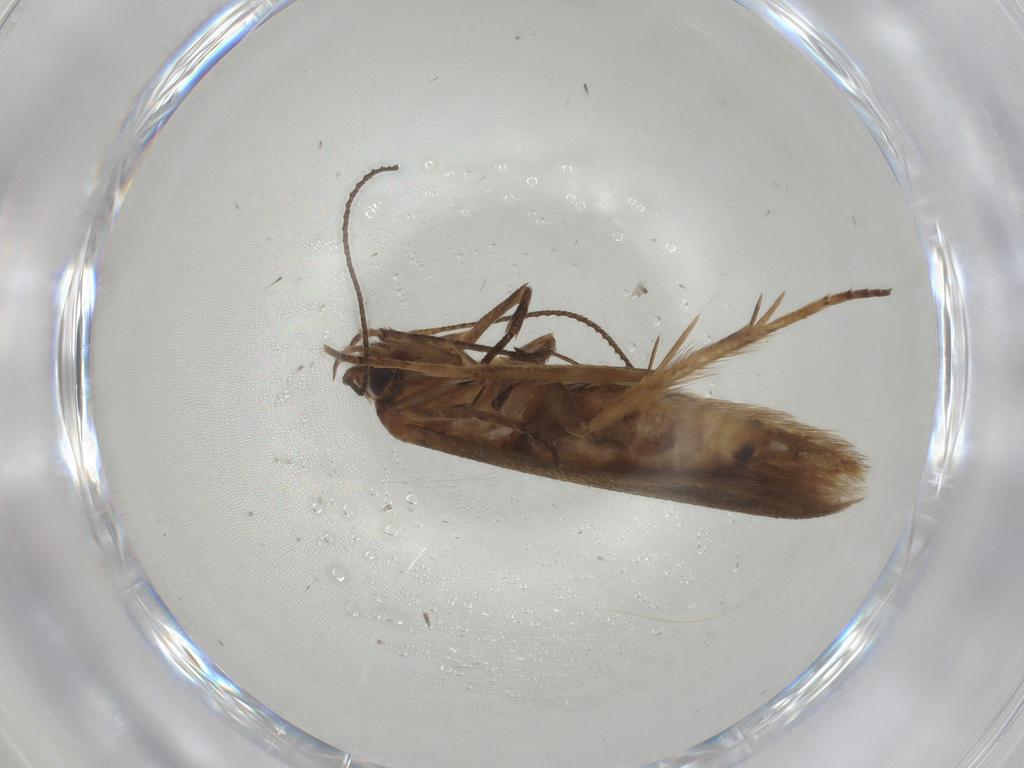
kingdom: Animalia
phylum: Arthropoda
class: Insecta
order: Lepidoptera
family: Elachistidae
